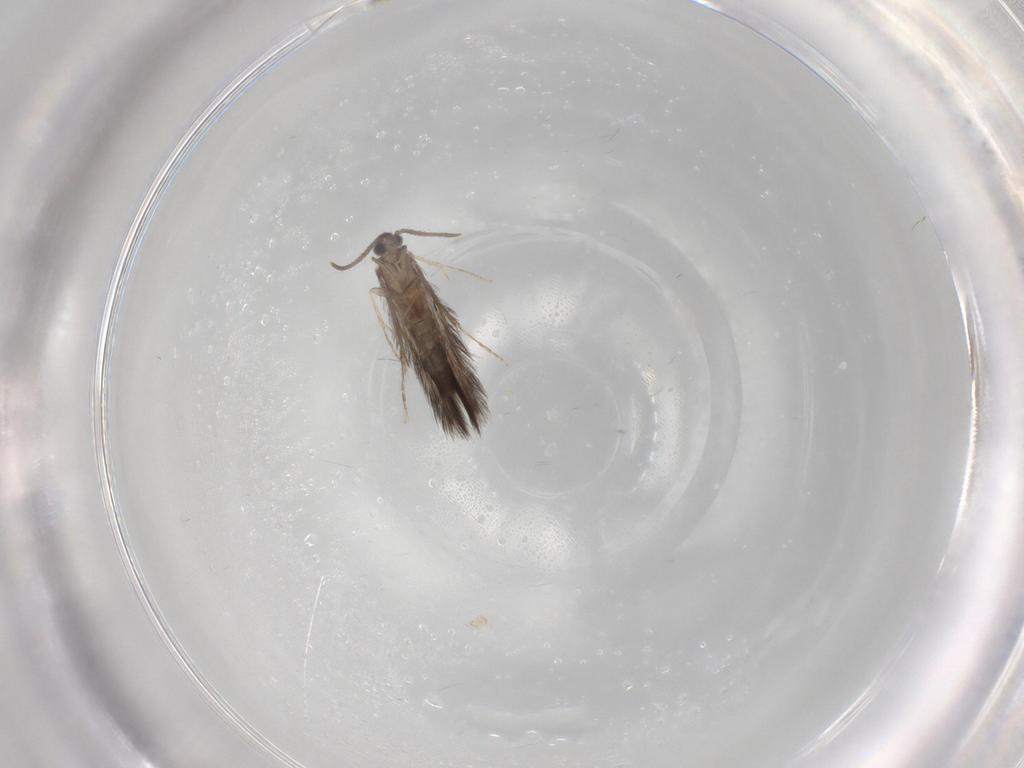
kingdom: Animalia
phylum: Arthropoda
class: Insecta
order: Trichoptera
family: Hydroptilidae
